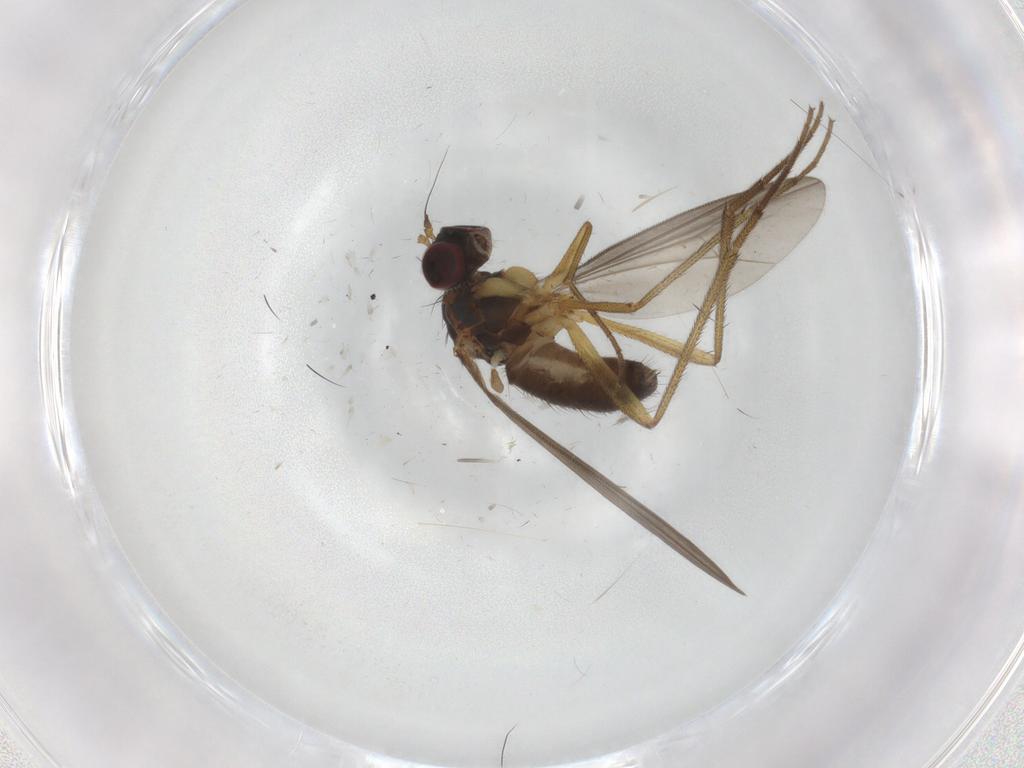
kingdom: Animalia
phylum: Arthropoda
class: Insecta
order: Diptera
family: Dolichopodidae
